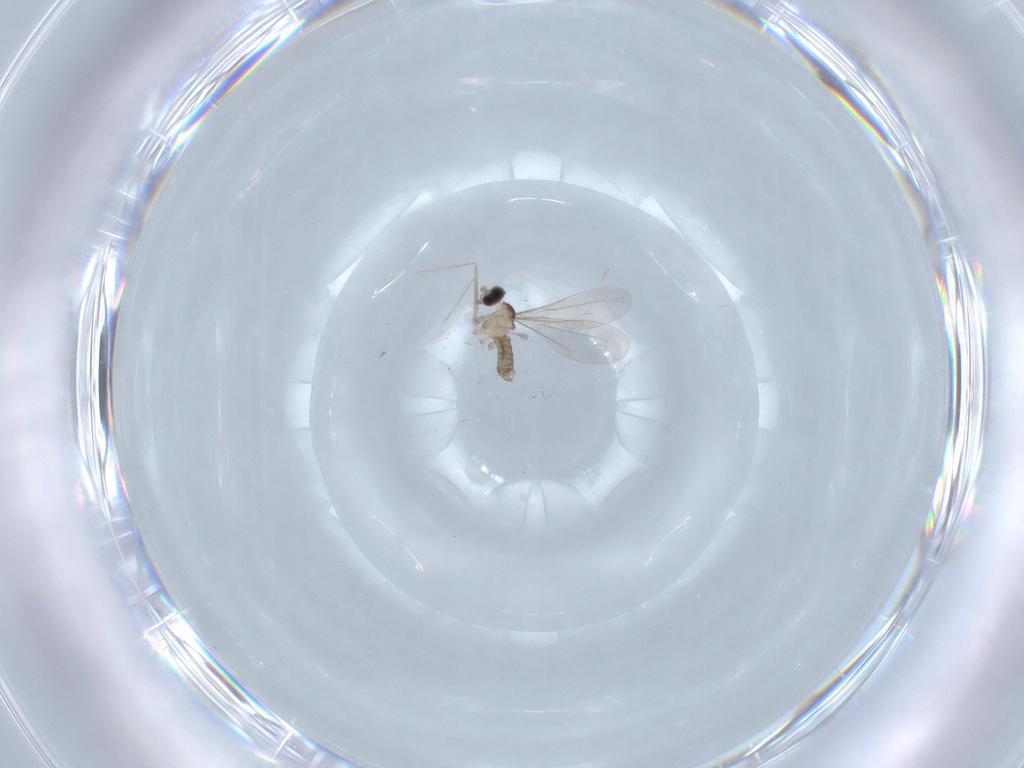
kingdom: Animalia
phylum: Arthropoda
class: Insecta
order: Diptera
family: Cecidomyiidae
